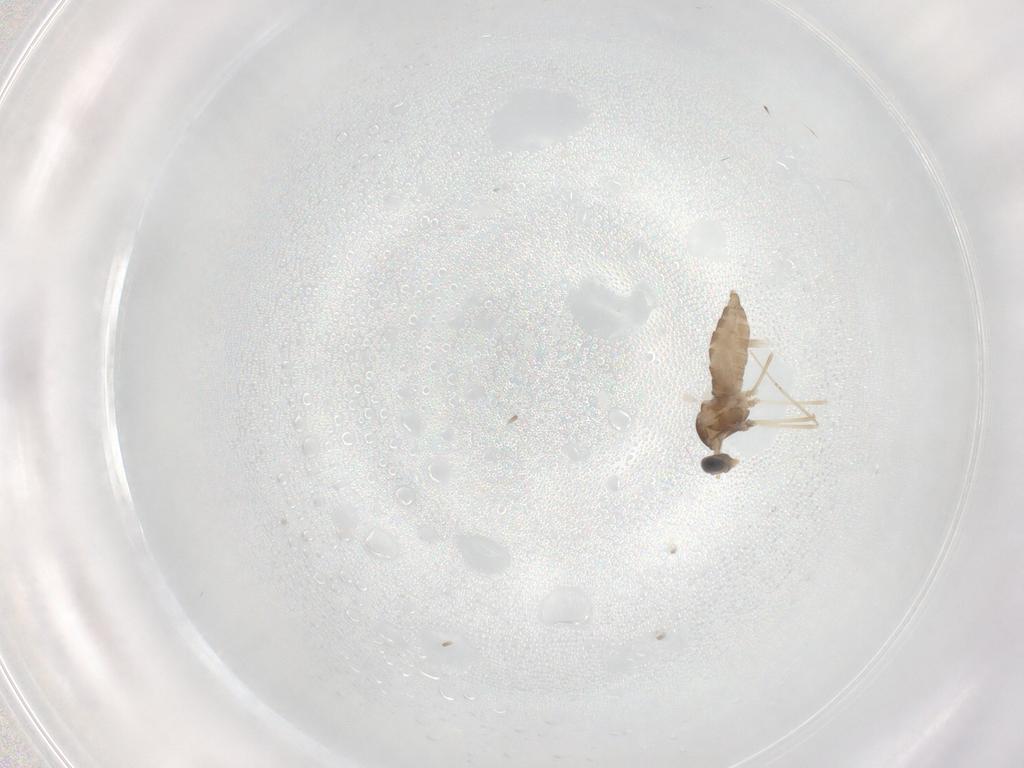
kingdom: Animalia
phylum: Arthropoda
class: Insecta
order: Diptera
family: Cecidomyiidae
